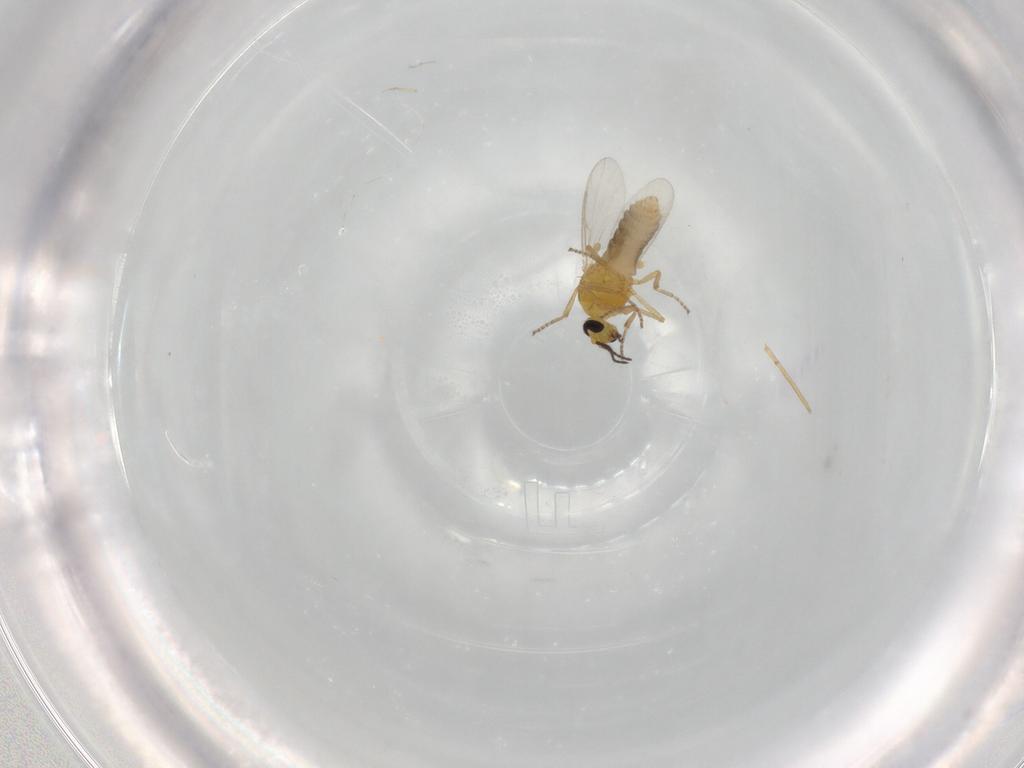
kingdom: Animalia
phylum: Arthropoda
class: Insecta
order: Diptera
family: Ceratopogonidae
